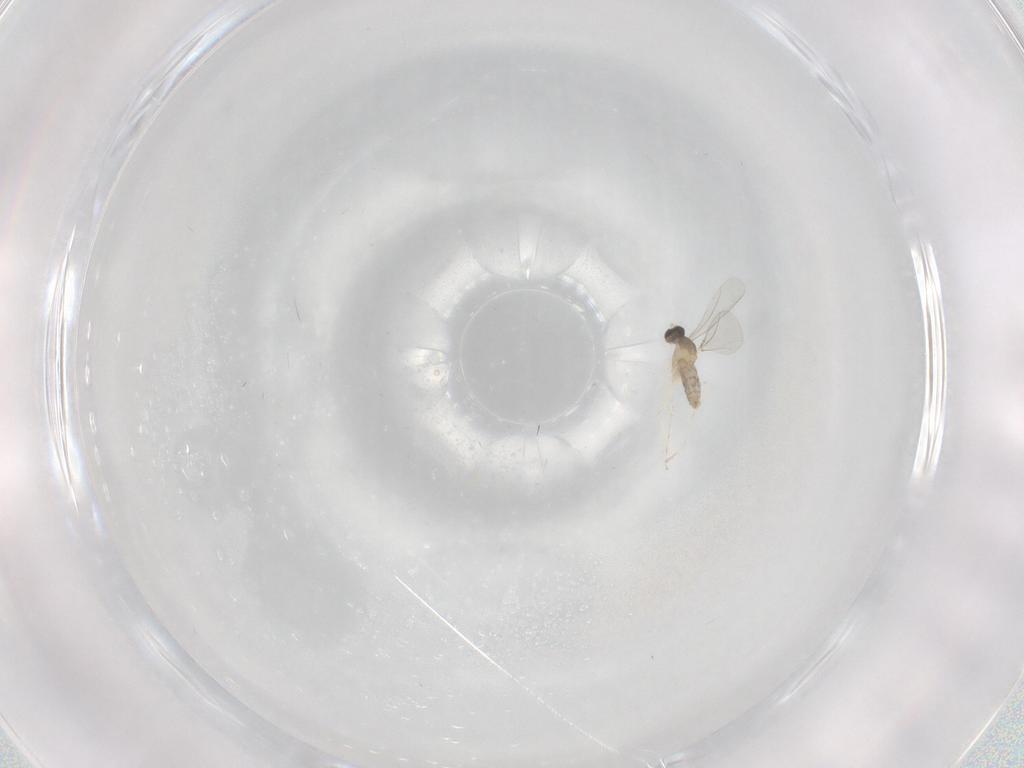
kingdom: Animalia
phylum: Arthropoda
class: Insecta
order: Diptera
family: Cecidomyiidae
